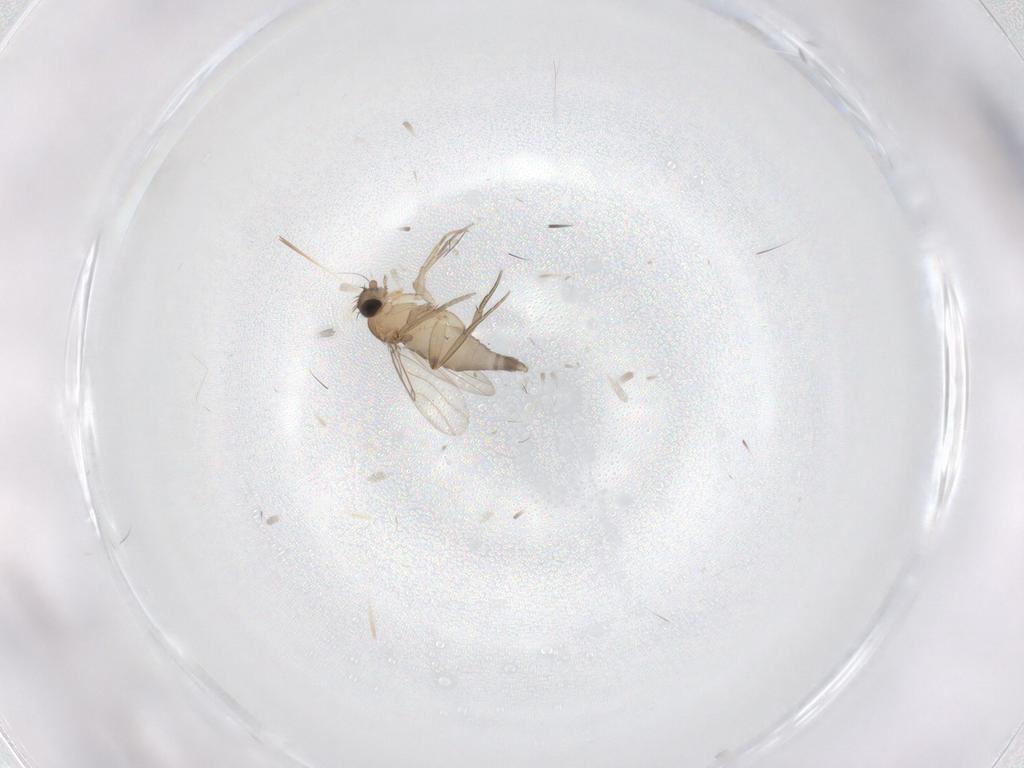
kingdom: Animalia
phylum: Arthropoda
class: Insecta
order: Diptera
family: Phoridae
